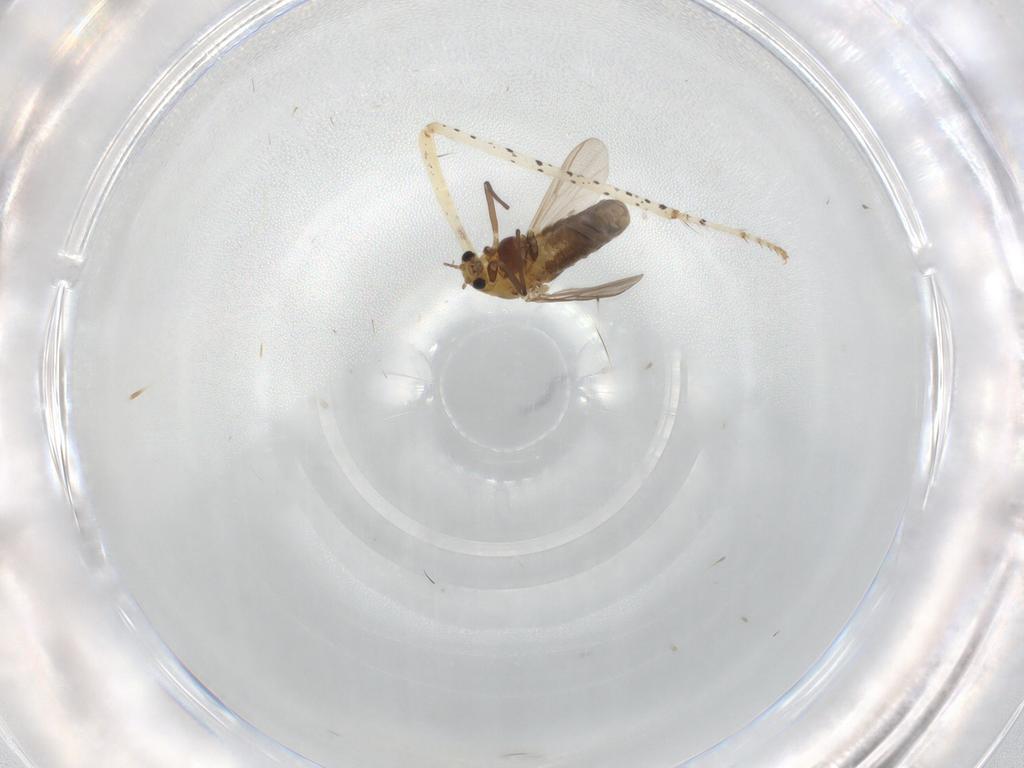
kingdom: Animalia
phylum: Arthropoda
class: Insecta
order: Diptera
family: Chironomidae
